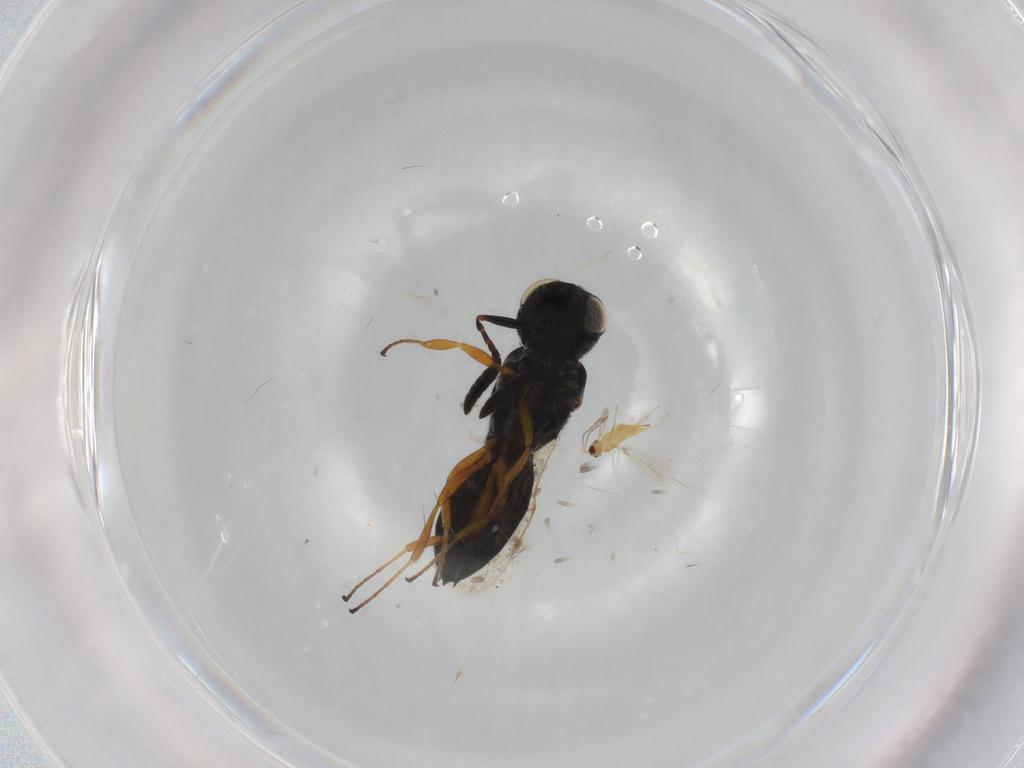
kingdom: Animalia
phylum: Arthropoda
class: Insecta
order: Hymenoptera
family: Scelionidae
